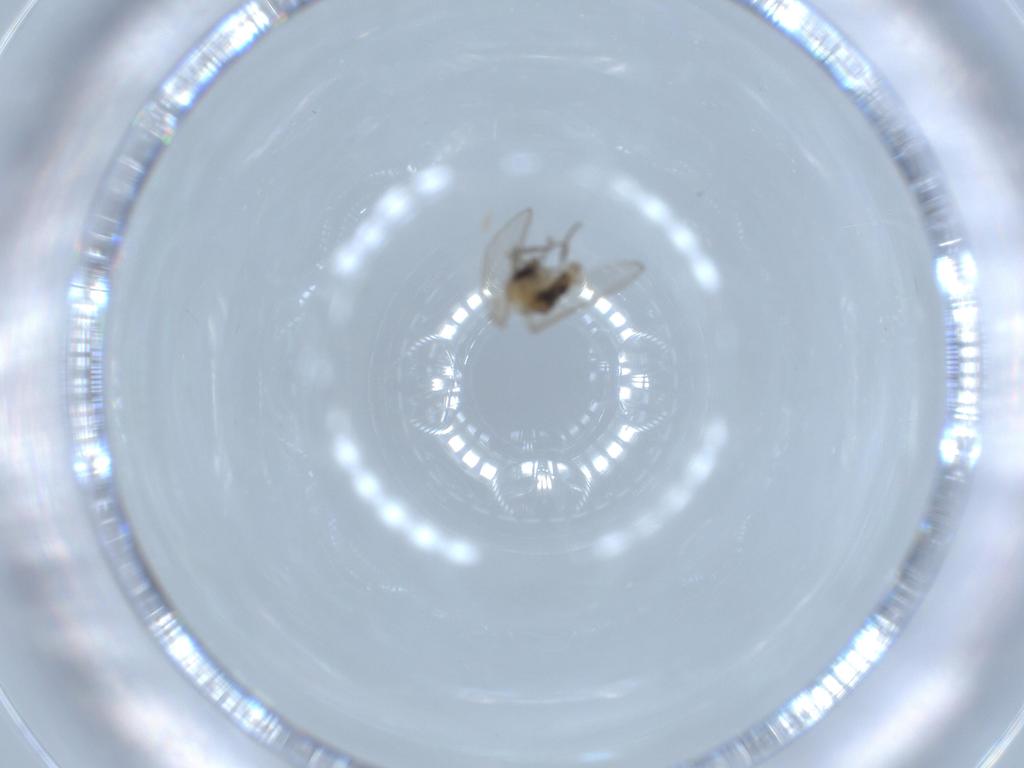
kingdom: Animalia
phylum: Arthropoda
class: Insecta
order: Diptera
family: Psychodidae
